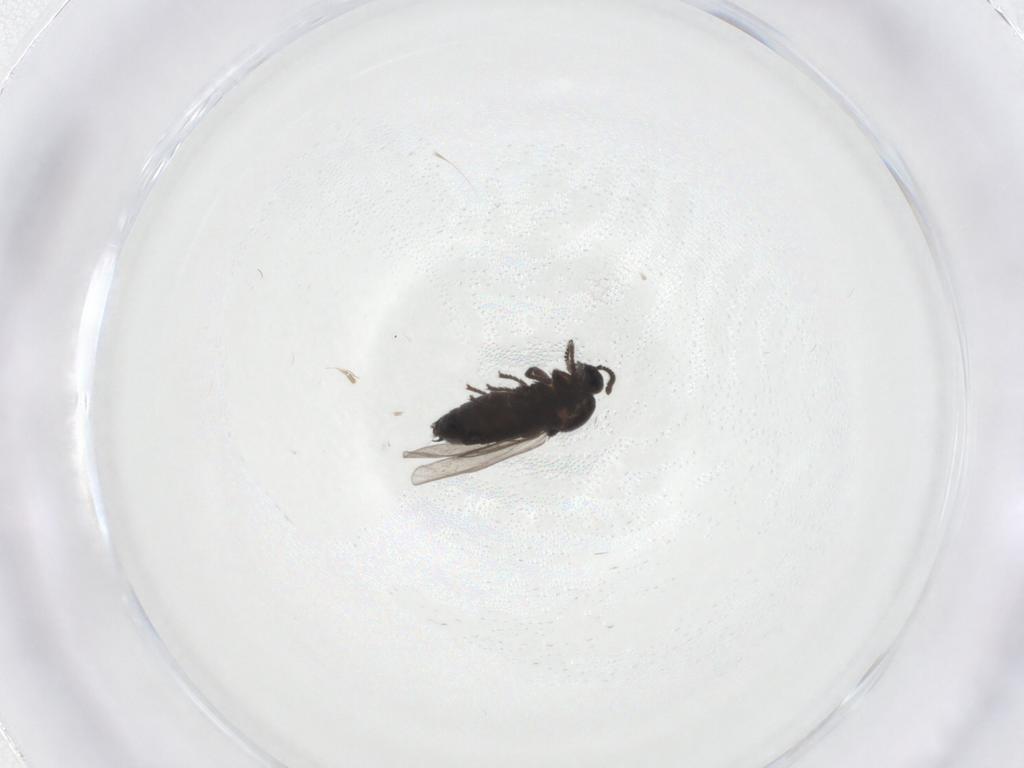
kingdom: Animalia
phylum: Arthropoda
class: Insecta
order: Diptera
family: Scatopsidae
